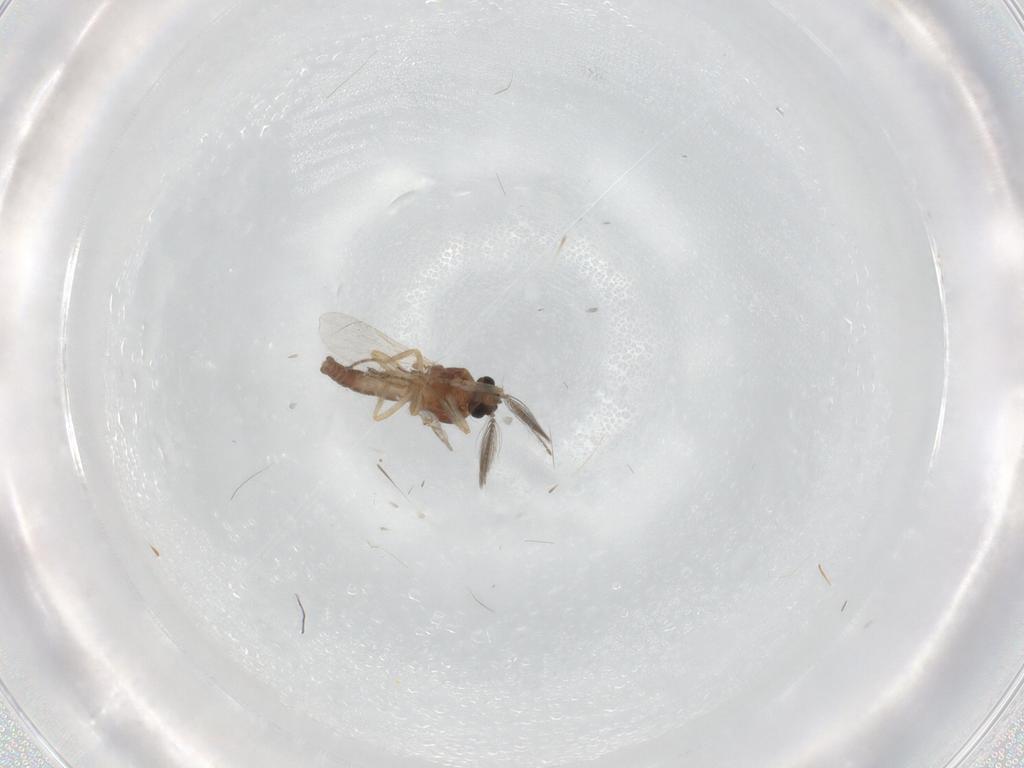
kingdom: Animalia
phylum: Arthropoda
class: Insecta
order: Diptera
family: Ceratopogonidae
